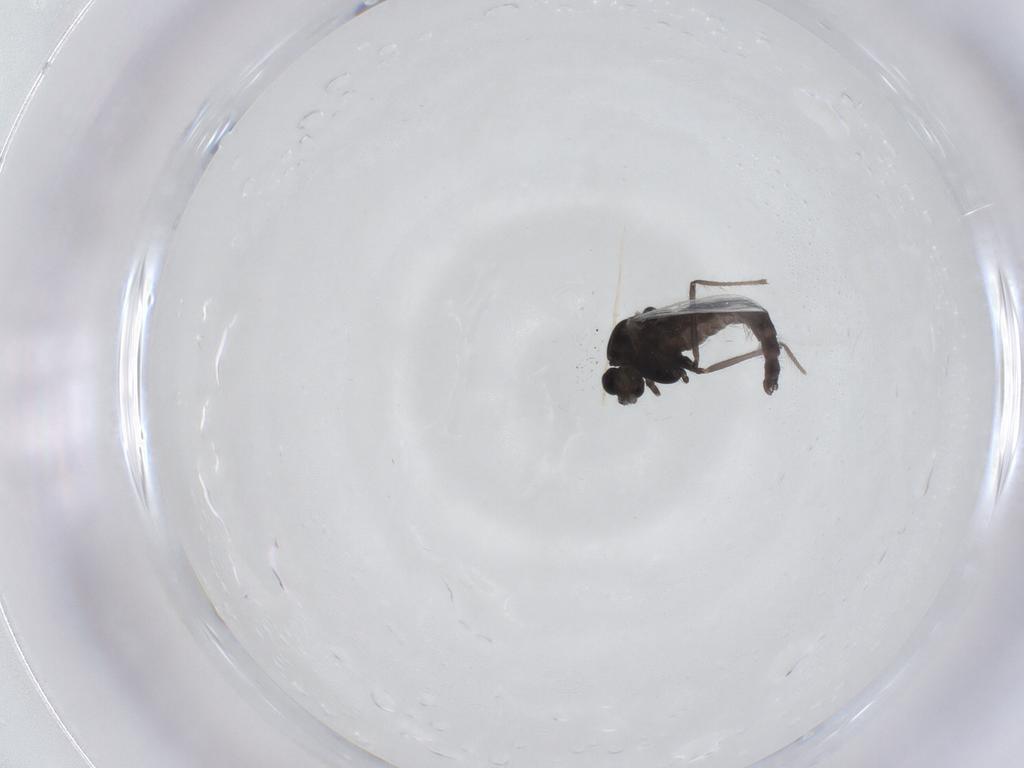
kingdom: Animalia
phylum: Arthropoda
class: Insecta
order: Diptera
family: Chironomidae
